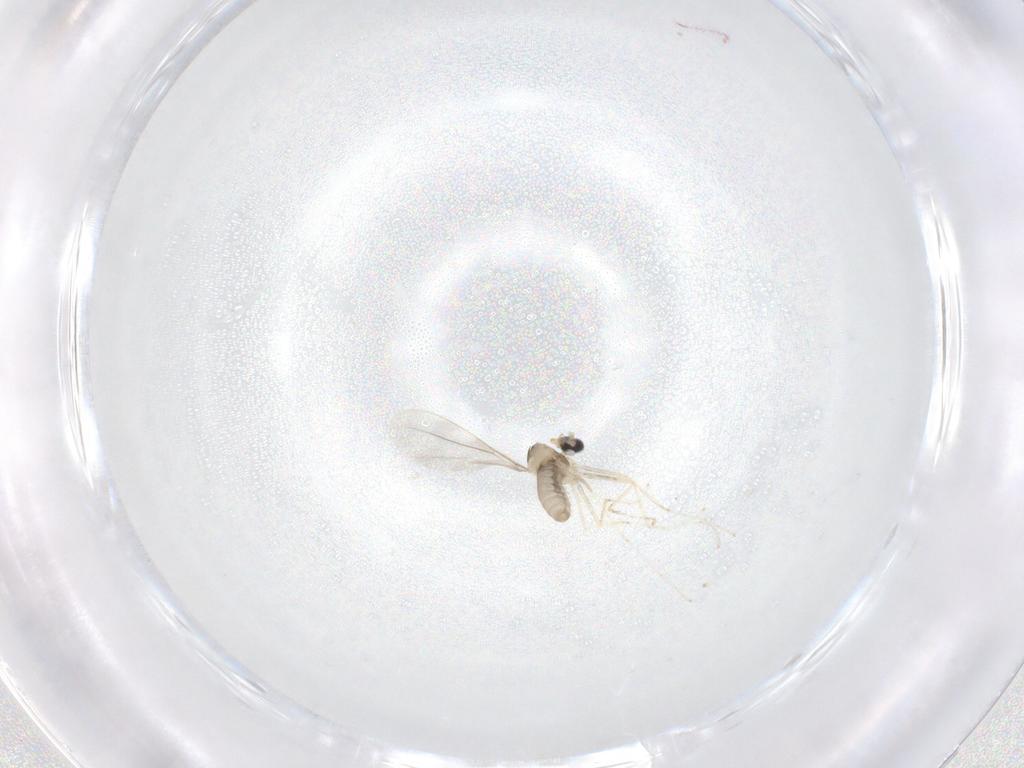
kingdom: Animalia
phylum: Arthropoda
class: Insecta
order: Diptera
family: Cecidomyiidae
